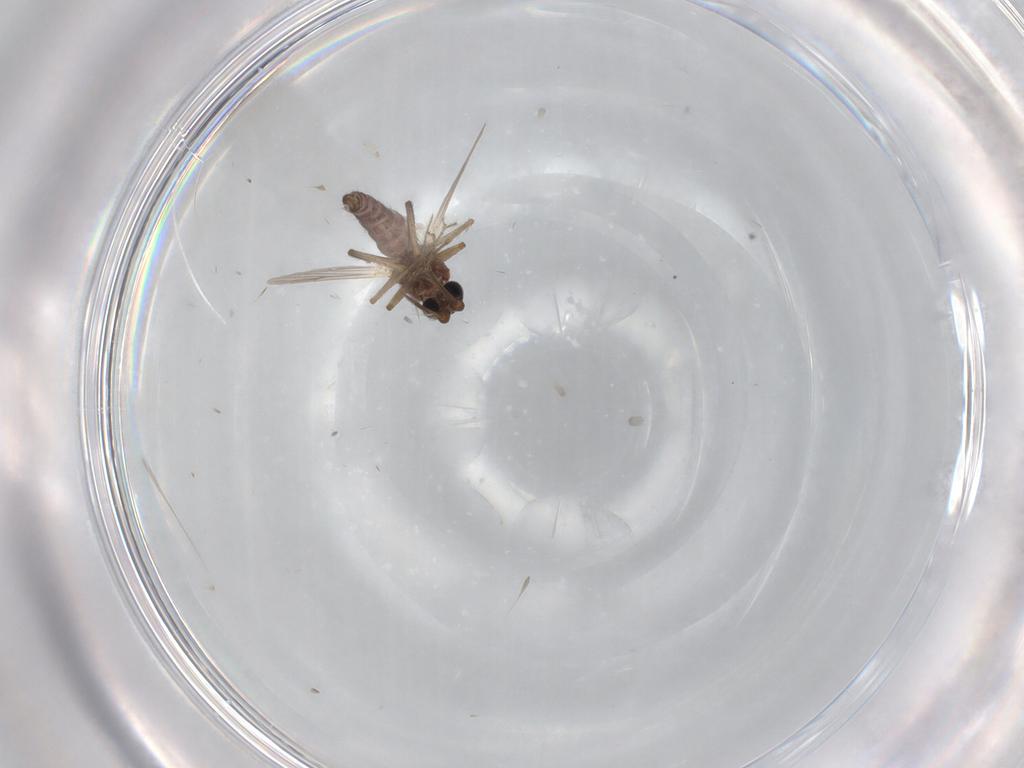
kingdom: Animalia
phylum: Arthropoda
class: Insecta
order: Diptera
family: Ceratopogonidae
